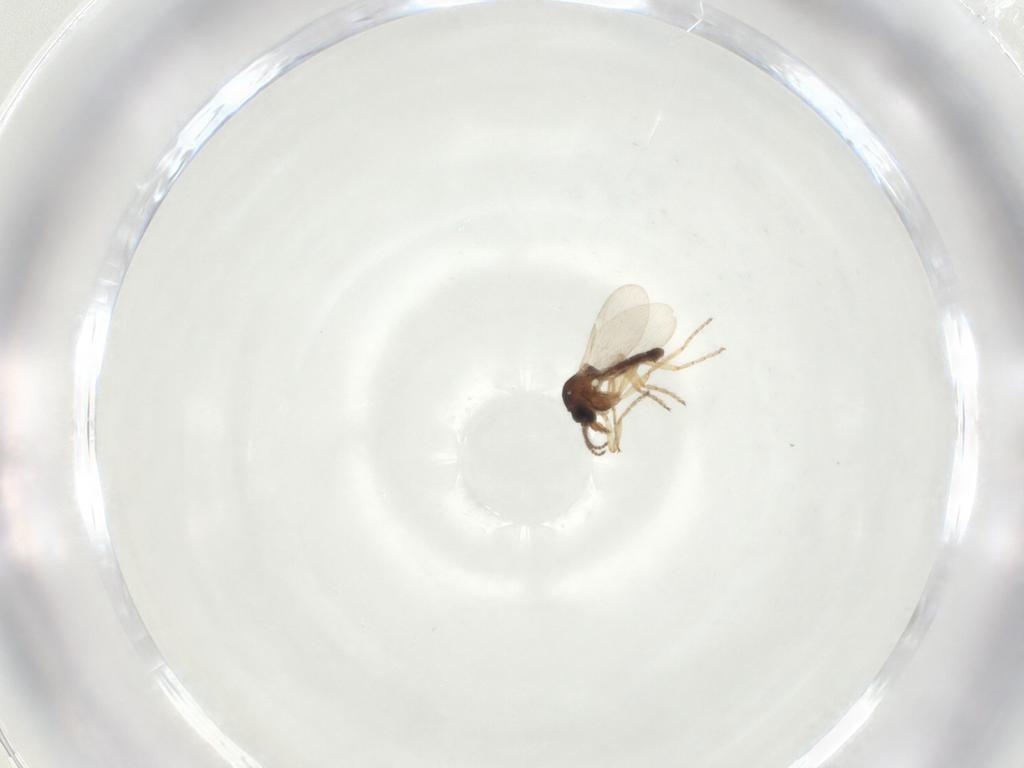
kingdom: Animalia
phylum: Arthropoda
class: Insecta
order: Diptera
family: Ceratopogonidae
